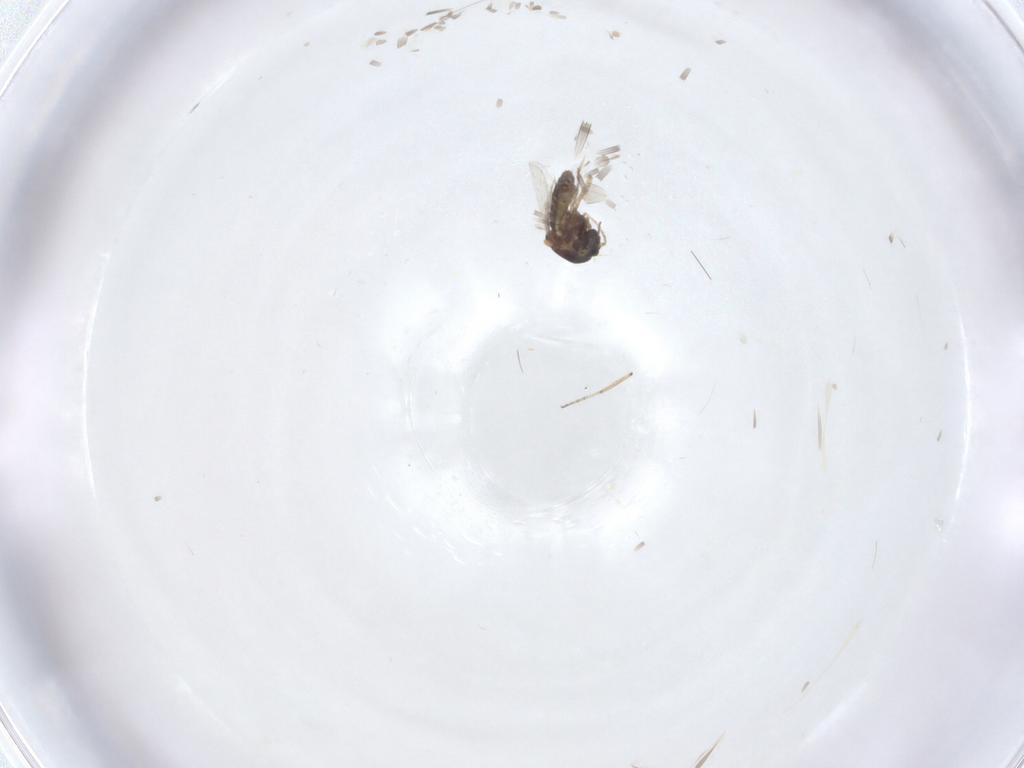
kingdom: Animalia
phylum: Arthropoda
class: Insecta
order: Diptera
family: Ceratopogonidae
